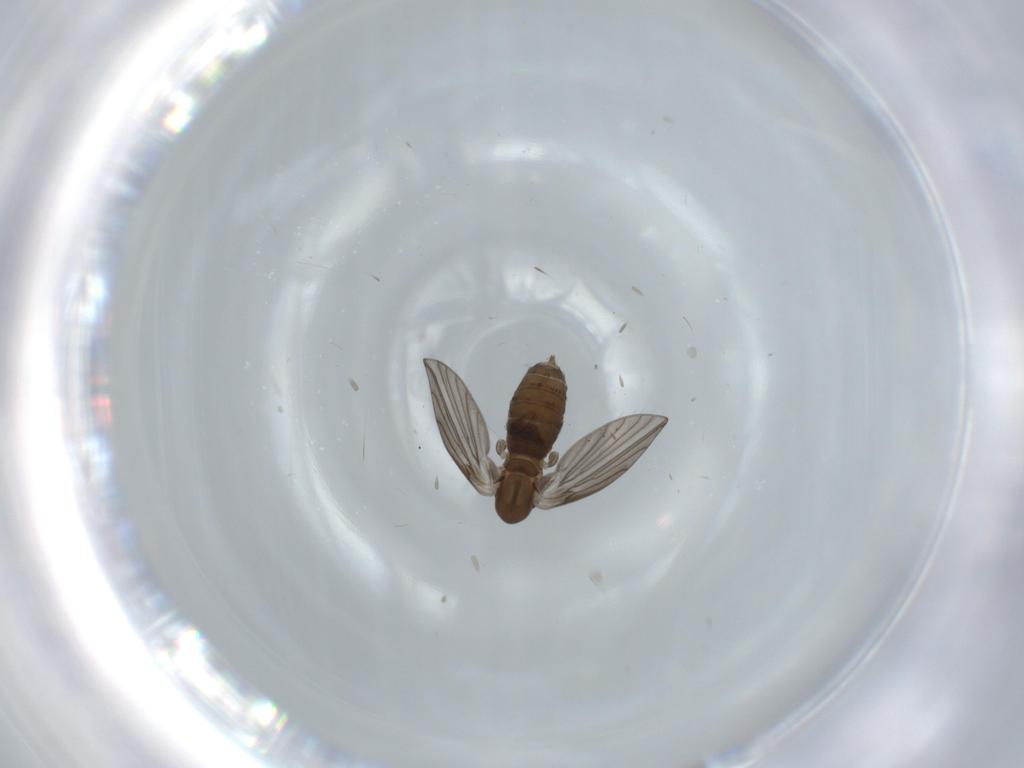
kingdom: Animalia
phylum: Arthropoda
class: Insecta
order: Diptera
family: Psychodidae
